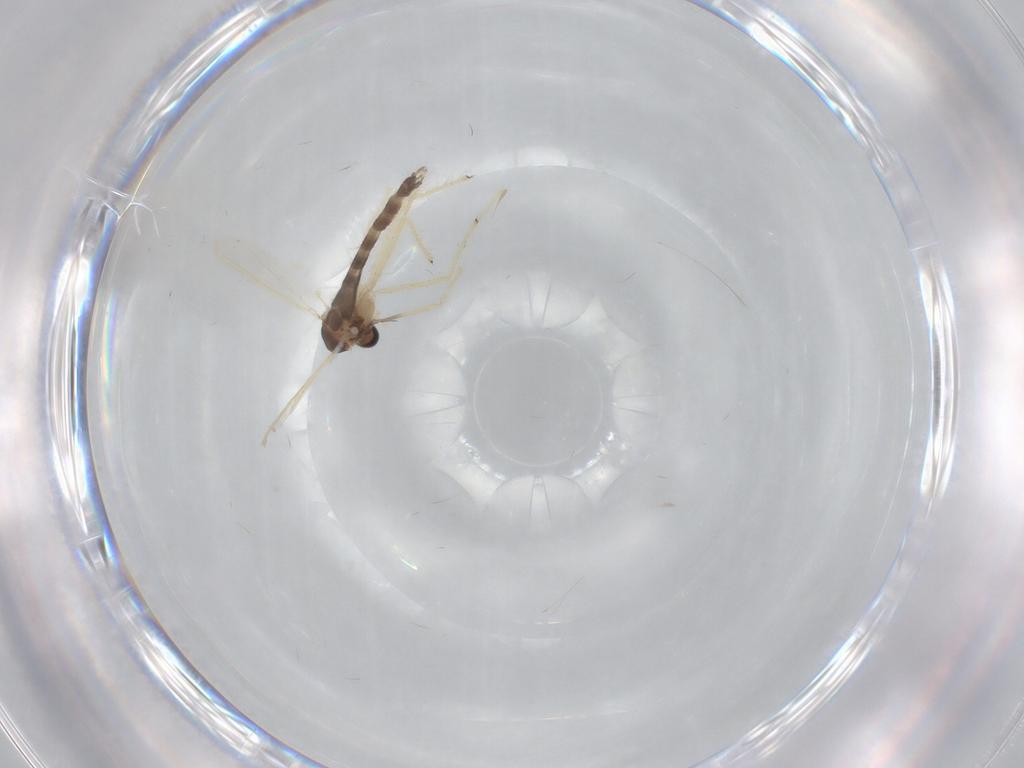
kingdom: Animalia
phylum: Arthropoda
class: Insecta
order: Diptera
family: Chironomidae
